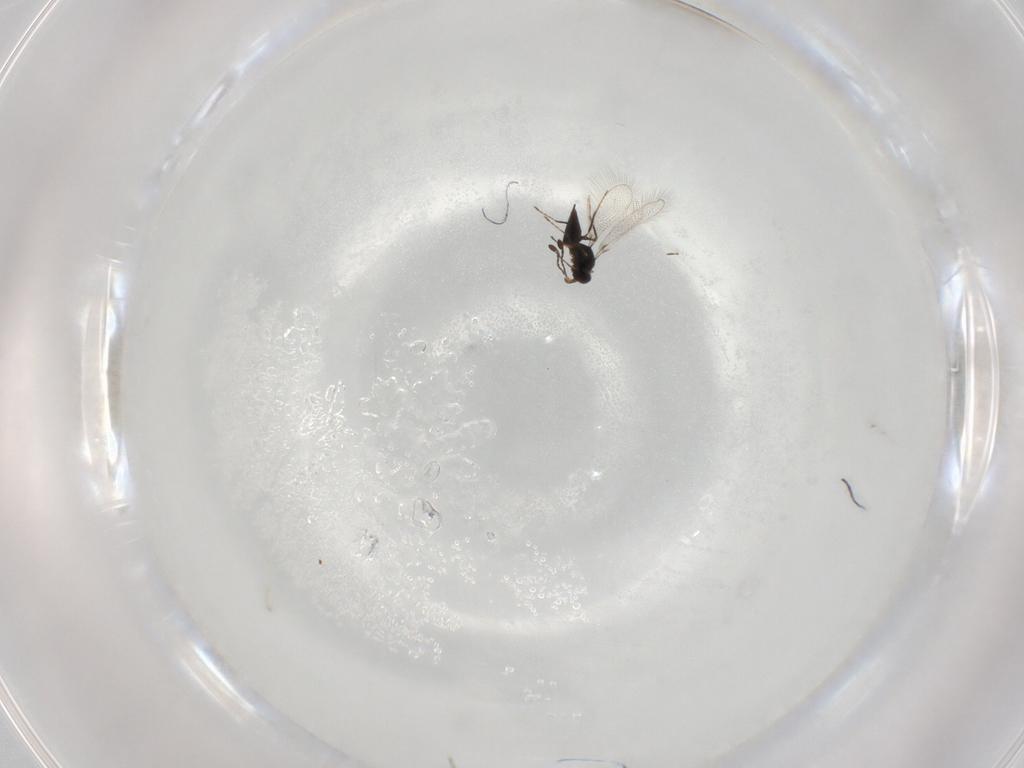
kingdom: Animalia
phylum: Arthropoda
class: Insecta
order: Hymenoptera
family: Mymaridae
